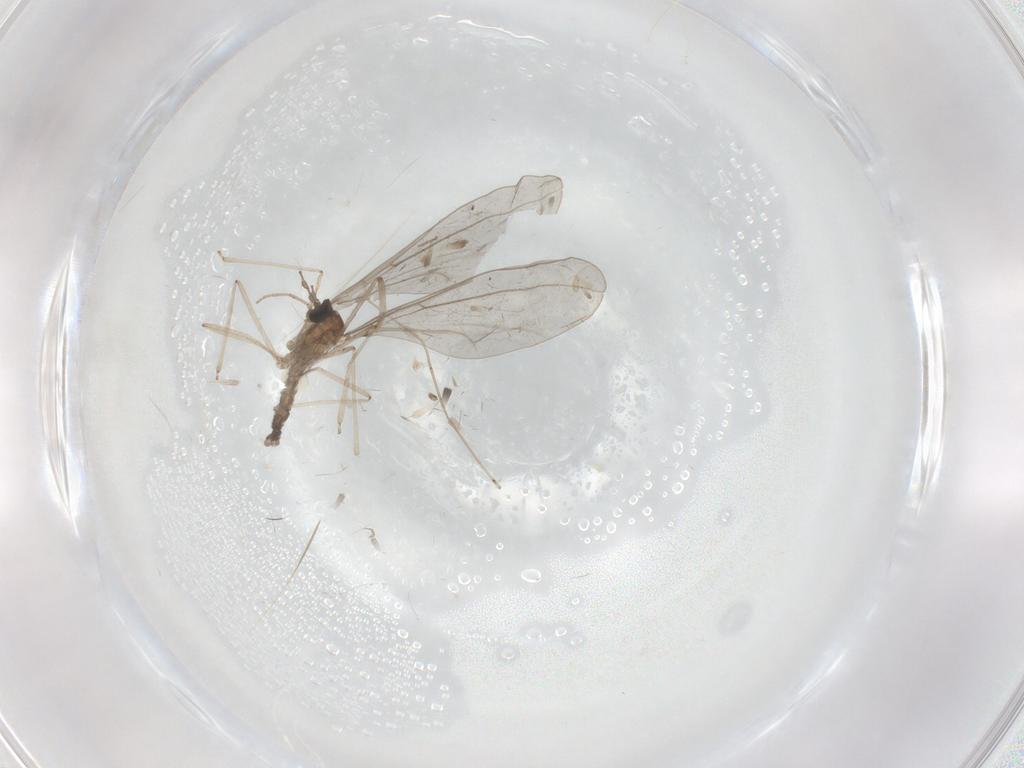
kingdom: Animalia
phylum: Arthropoda
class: Insecta
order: Diptera
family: Cecidomyiidae
